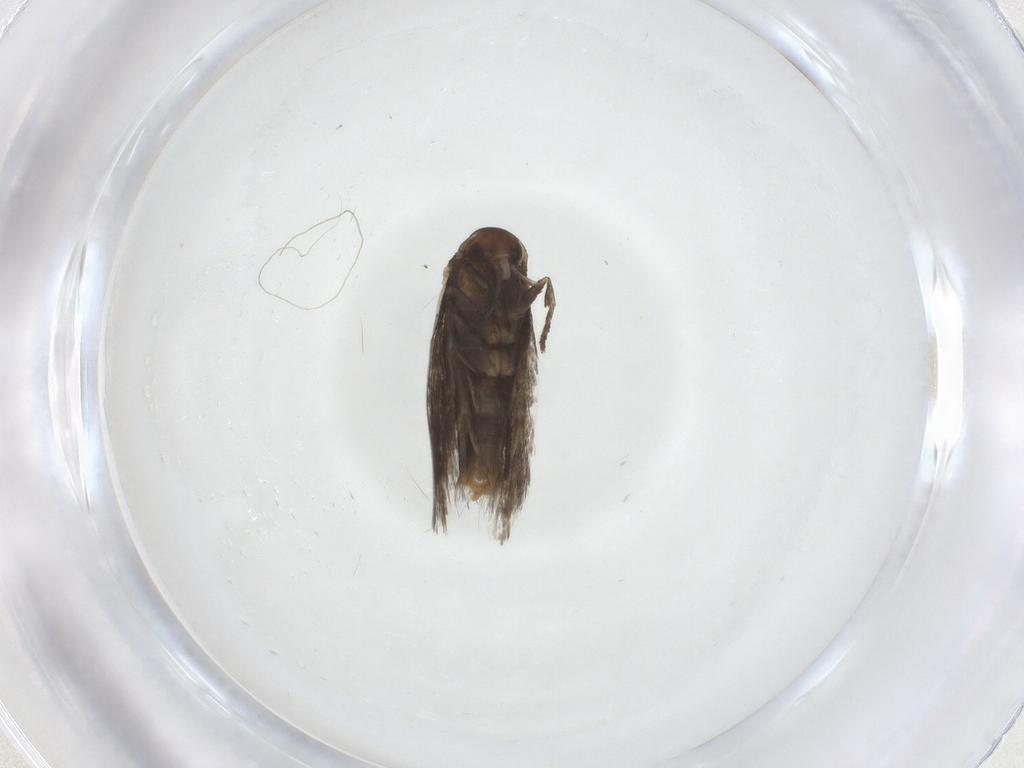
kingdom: Animalia
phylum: Arthropoda
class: Insecta
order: Lepidoptera
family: Elachistidae
